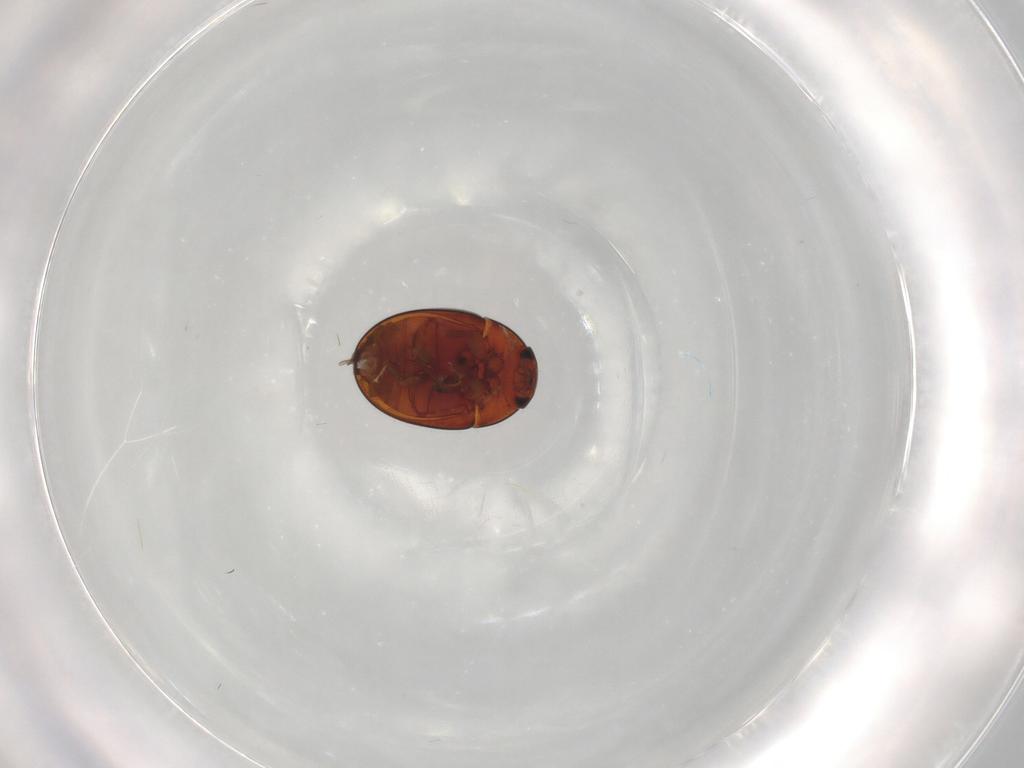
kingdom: Animalia
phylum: Arthropoda
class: Insecta
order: Coleoptera
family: Phalacridae
